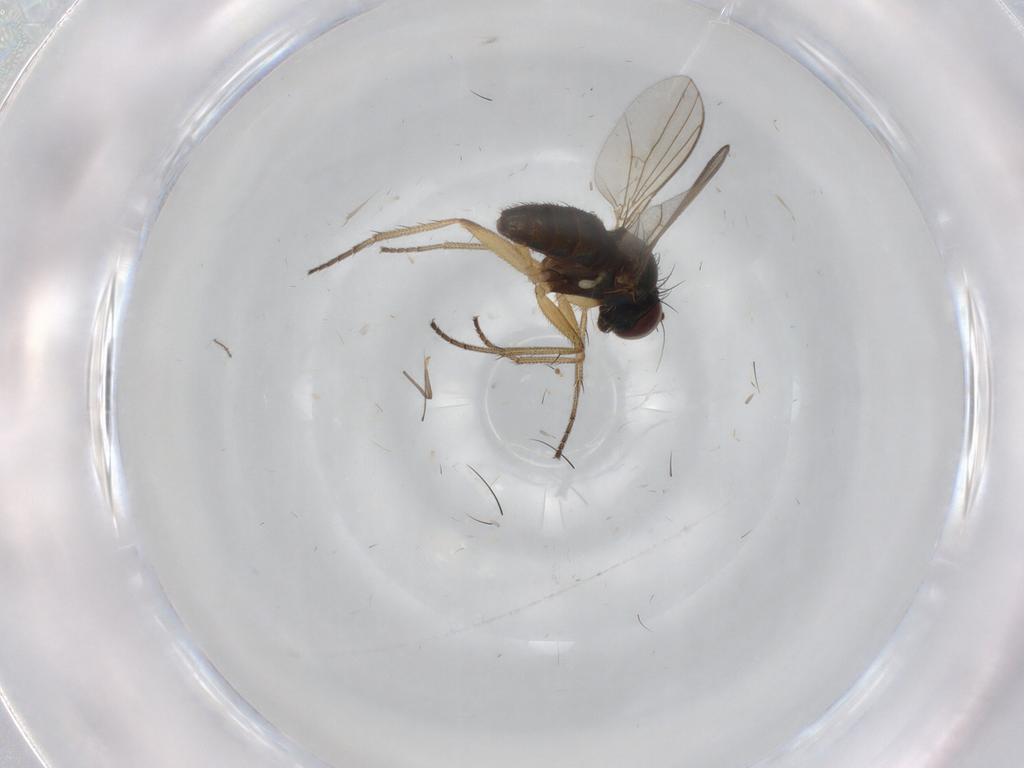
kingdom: Animalia
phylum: Arthropoda
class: Insecta
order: Diptera
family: Dolichopodidae
